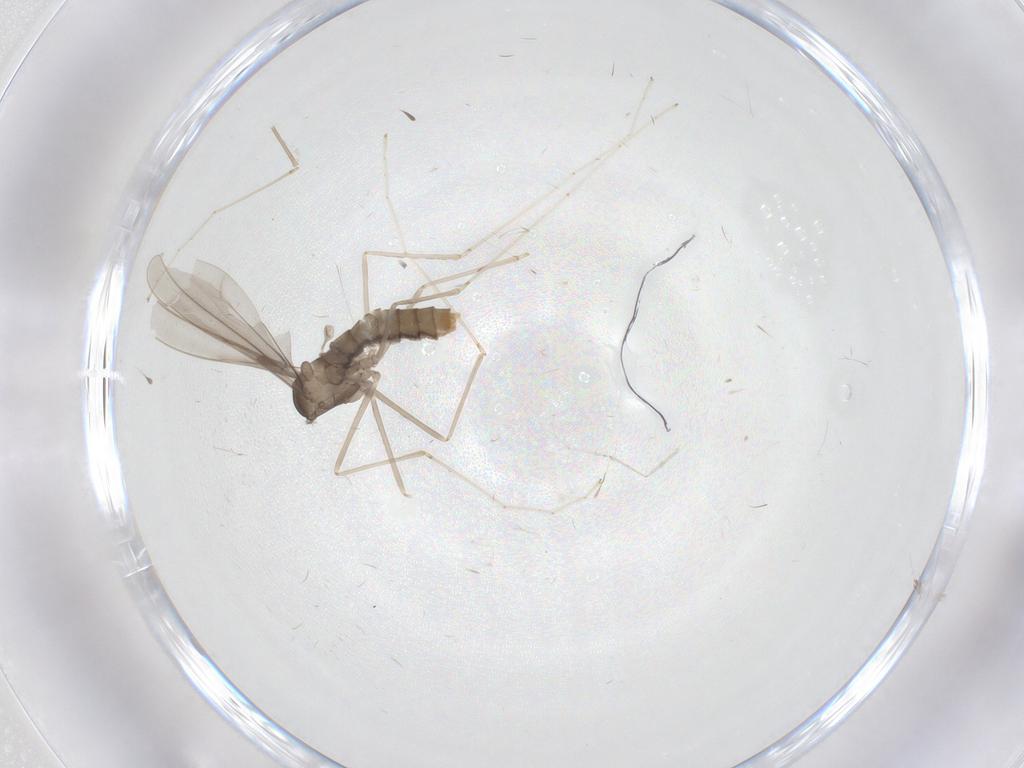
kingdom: Animalia
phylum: Arthropoda
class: Insecta
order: Diptera
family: Cecidomyiidae
